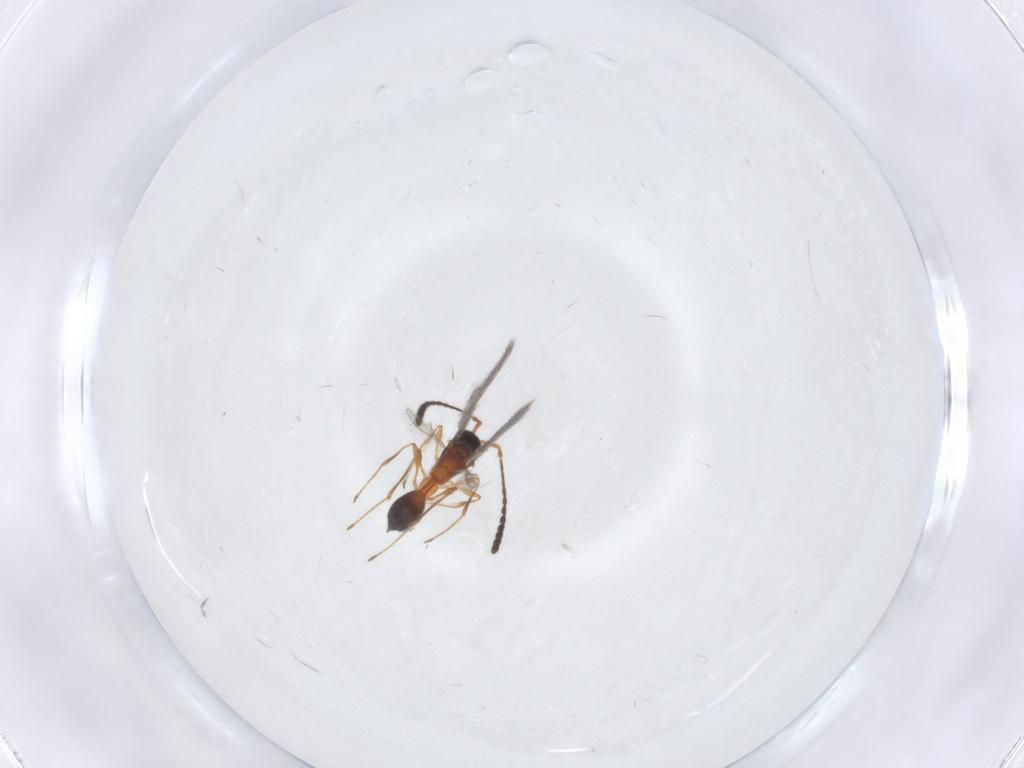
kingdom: Animalia
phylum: Arthropoda
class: Insecta
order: Hymenoptera
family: Diapriidae
